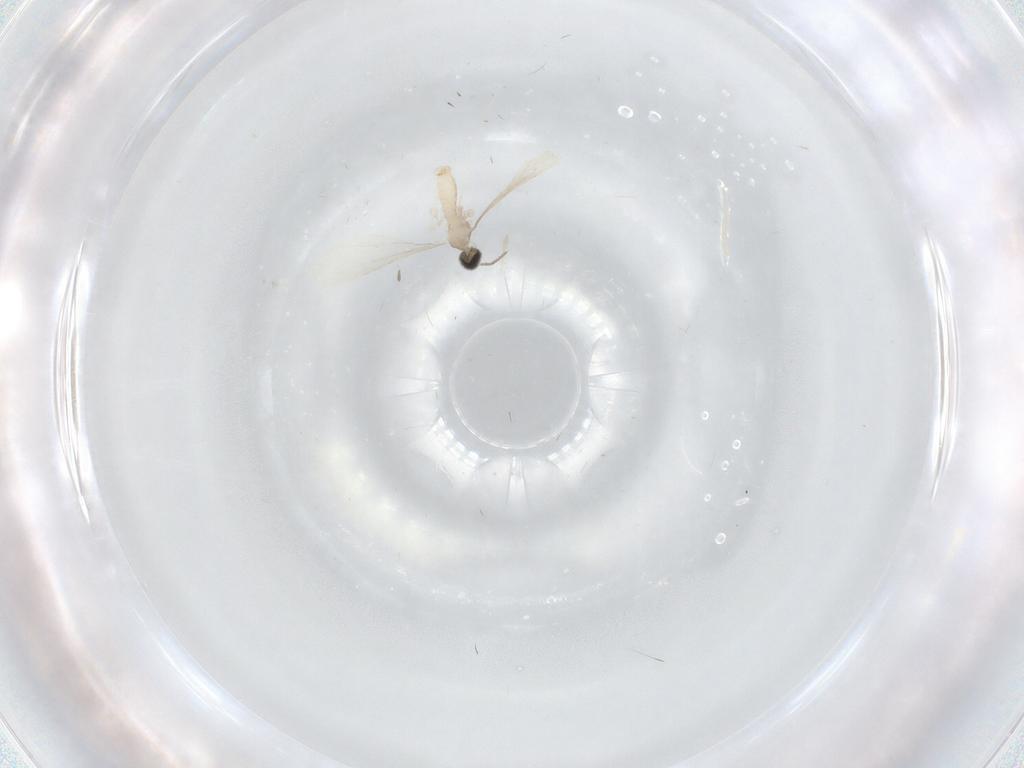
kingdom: Animalia
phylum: Arthropoda
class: Insecta
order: Diptera
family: Cecidomyiidae
